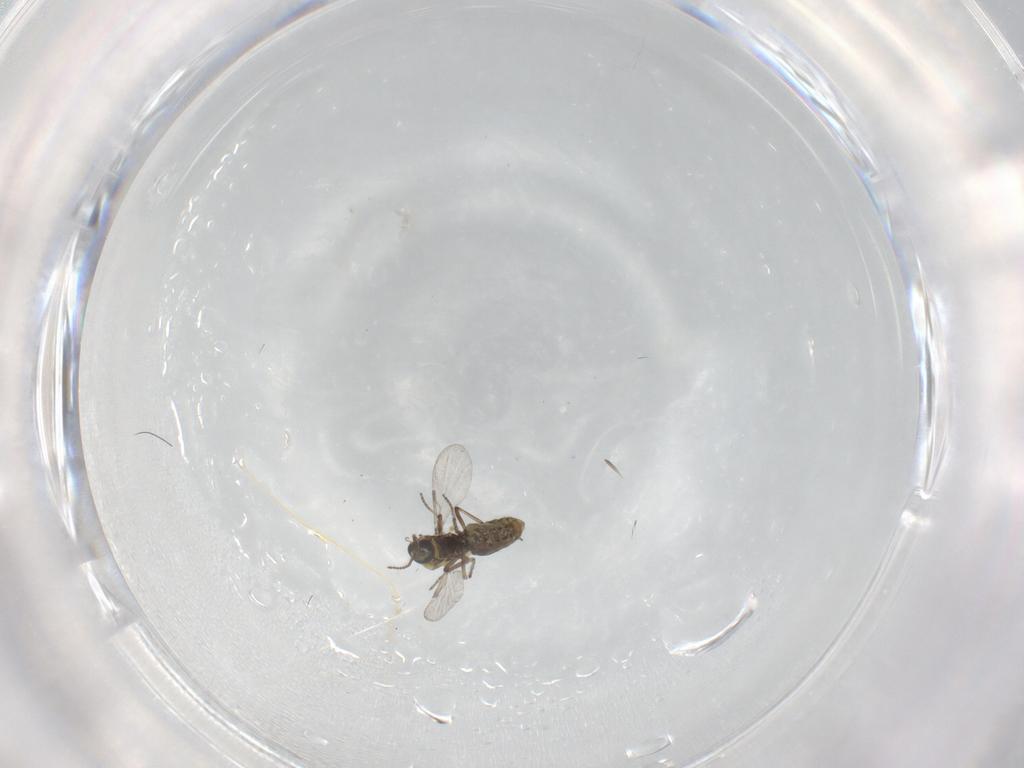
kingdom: Animalia
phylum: Arthropoda
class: Insecta
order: Diptera
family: Ceratopogonidae
